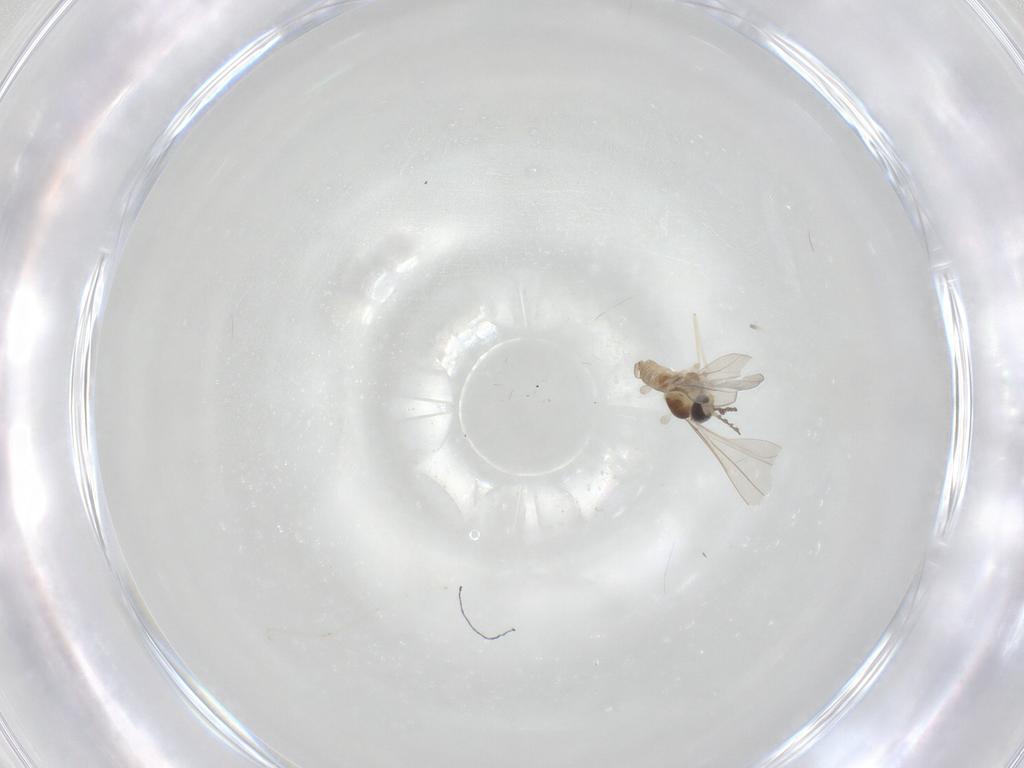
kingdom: Animalia
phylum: Arthropoda
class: Insecta
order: Diptera
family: Cecidomyiidae
